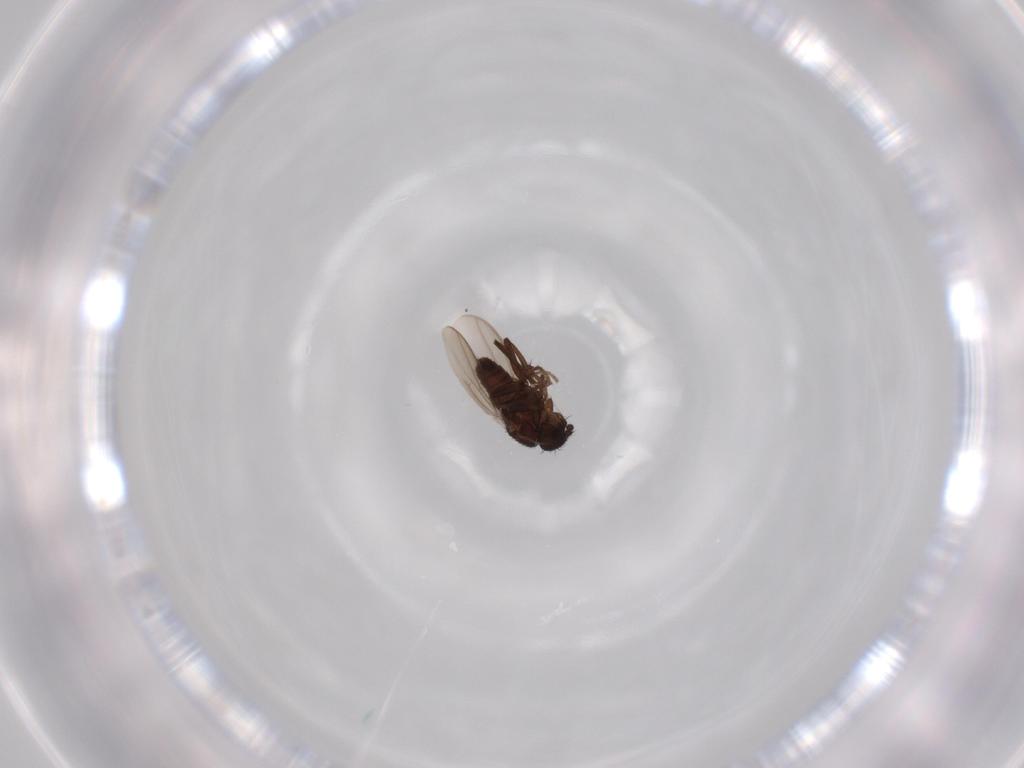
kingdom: Animalia
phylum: Arthropoda
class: Insecta
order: Diptera
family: Sphaeroceridae
